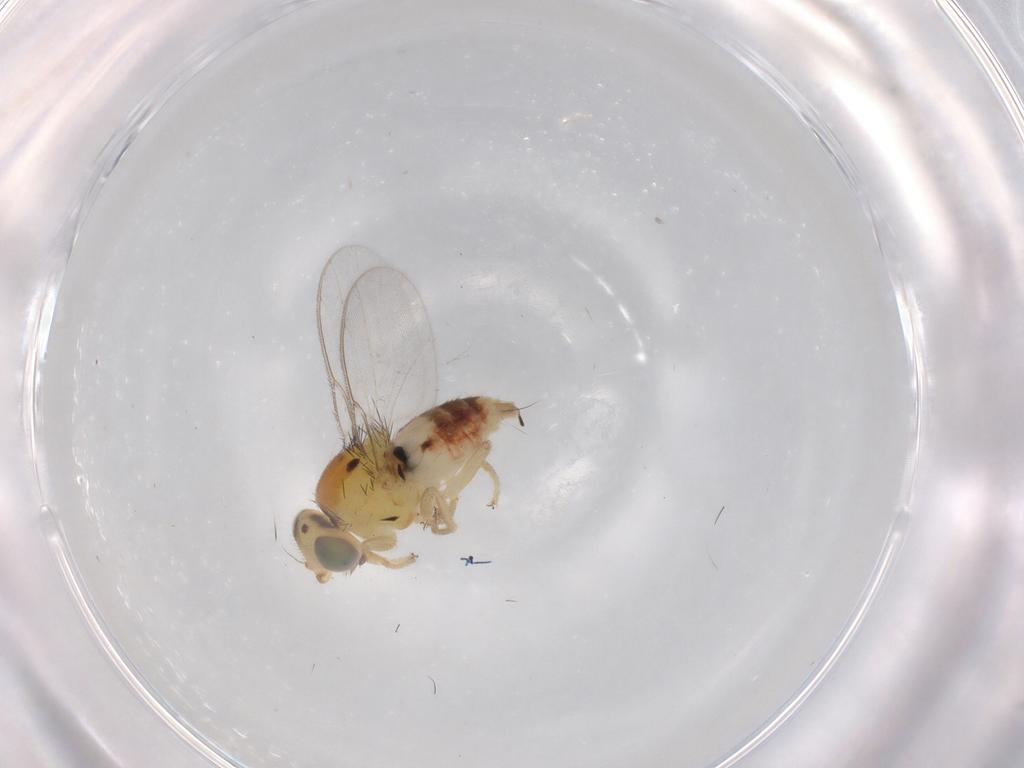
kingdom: Animalia
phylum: Arthropoda
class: Insecta
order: Diptera
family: Chloropidae
